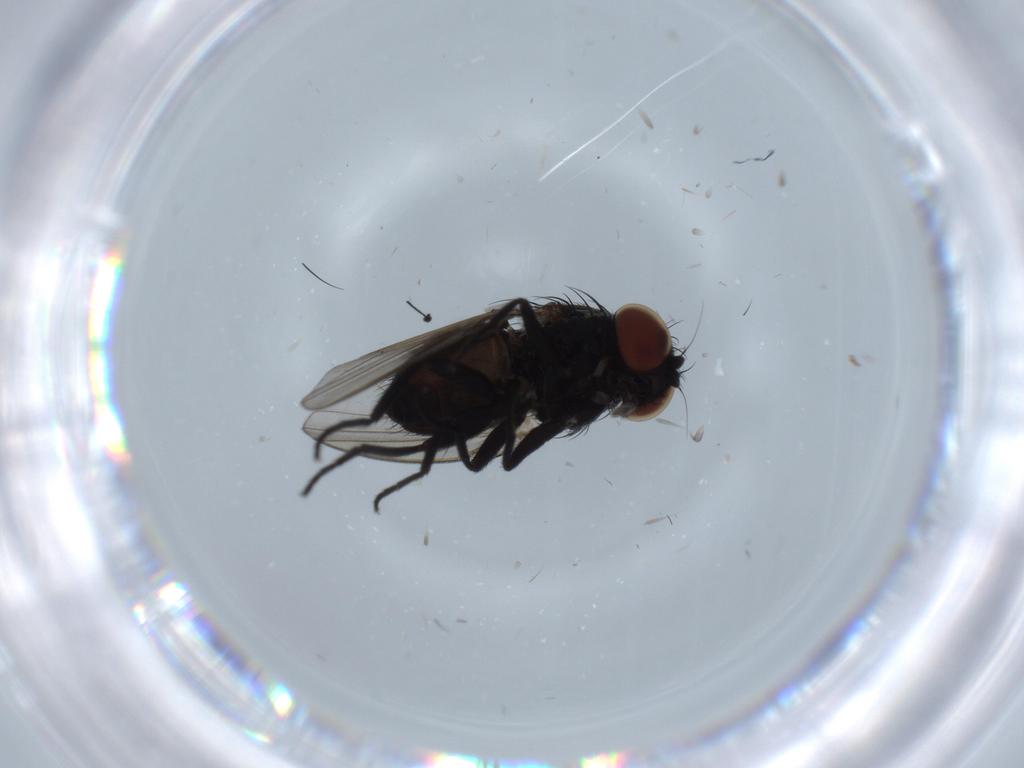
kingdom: Animalia
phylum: Arthropoda
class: Insecta
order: Diptera
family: Milichiidae
